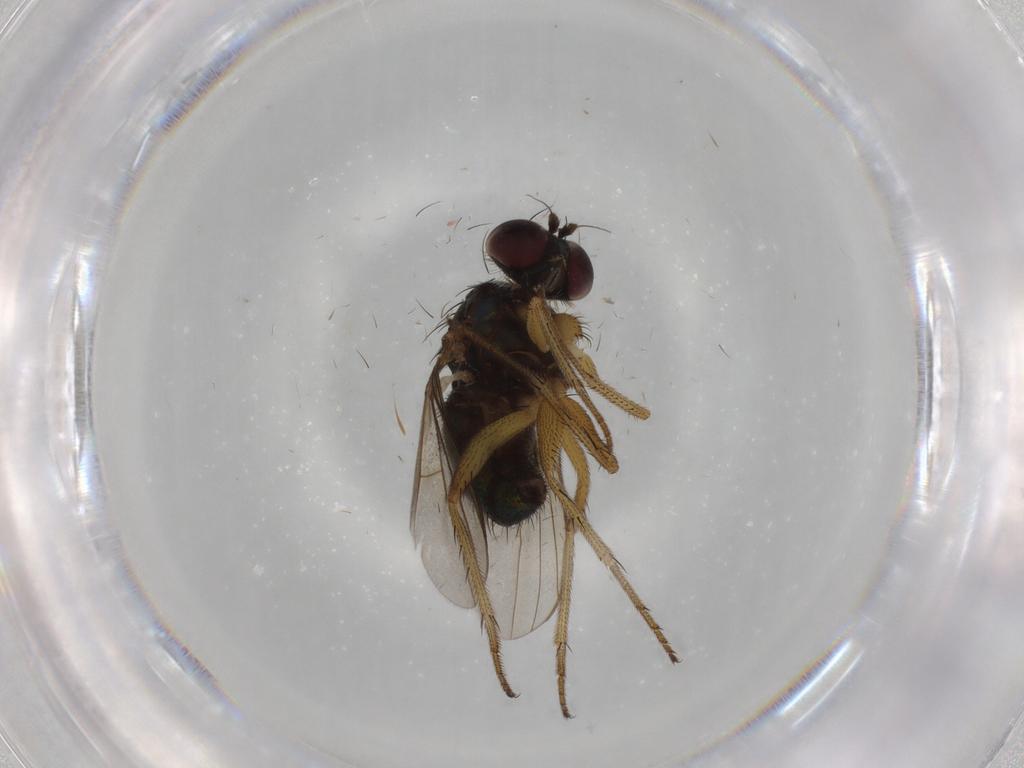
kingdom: Animalia
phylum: Arthropoda
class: Insecta
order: Diptera
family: Dolichopodidae
